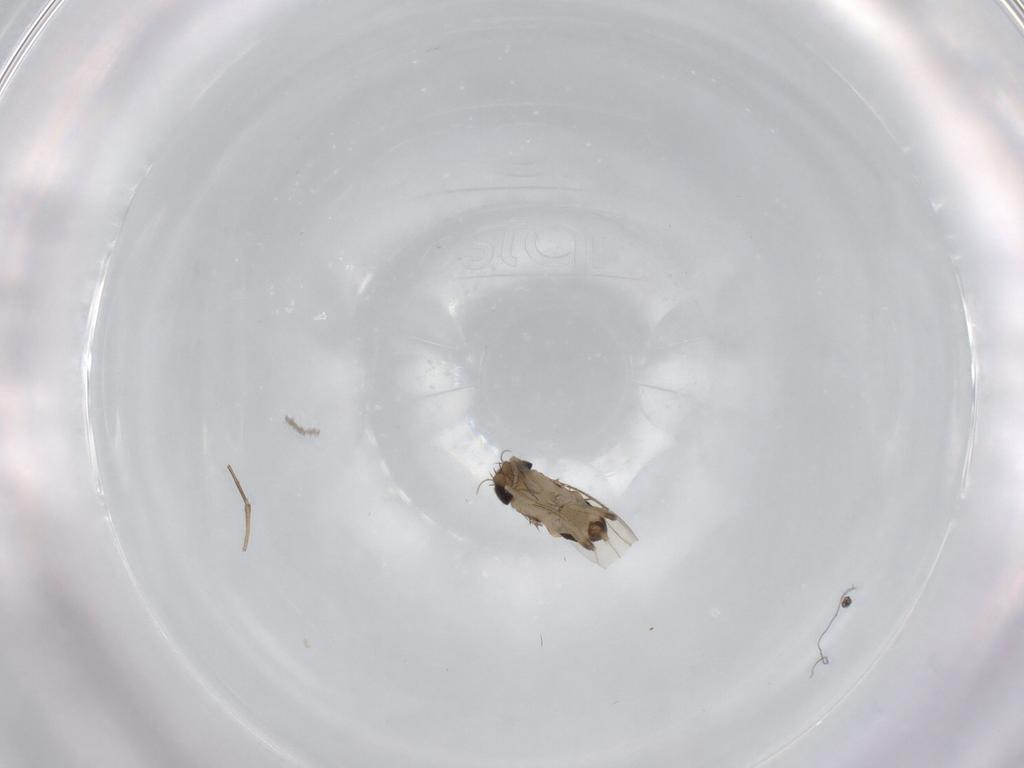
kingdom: Animalia
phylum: Arthropoda
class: Insecta
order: Diptera
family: Phoridae
